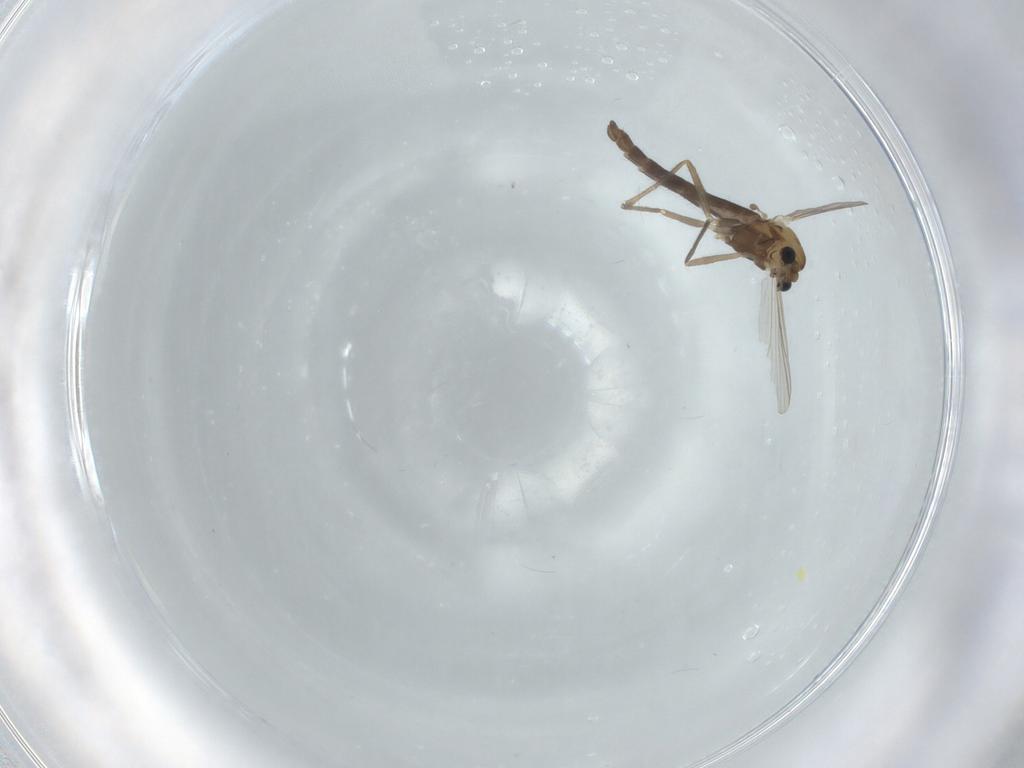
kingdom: Animalia
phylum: Arthropoda
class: Insecta
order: Diptera
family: Chironomidae
